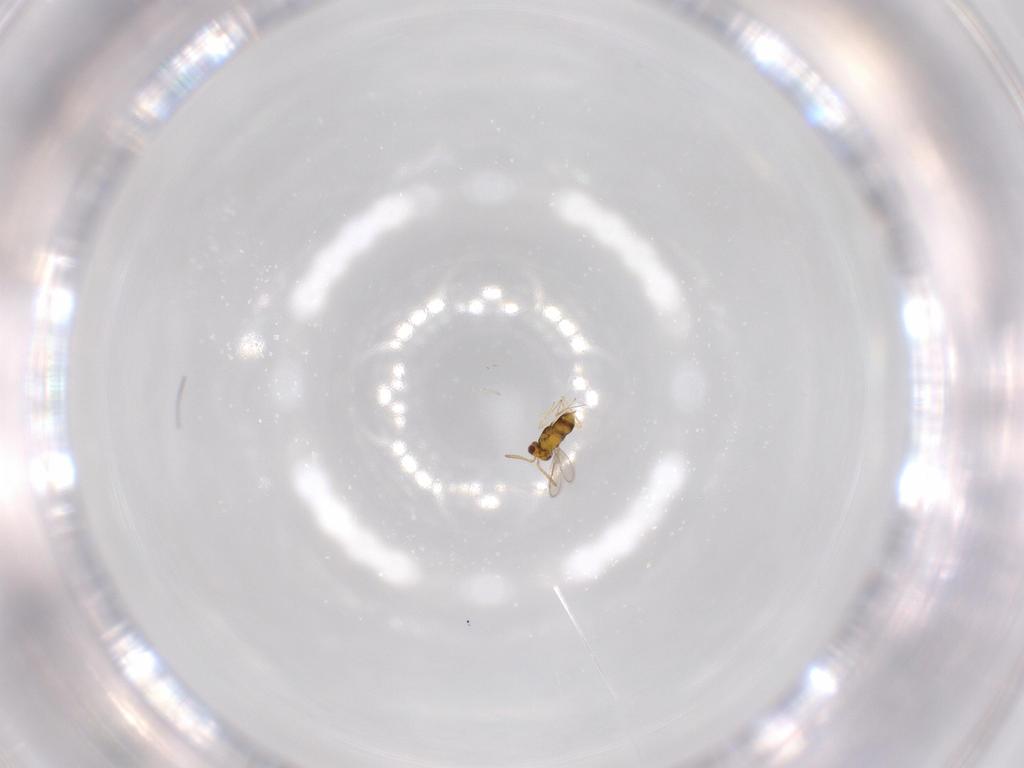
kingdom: Animalia
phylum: Arthropoda
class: Insecta
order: Hymenoptera
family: Aphelinidae
